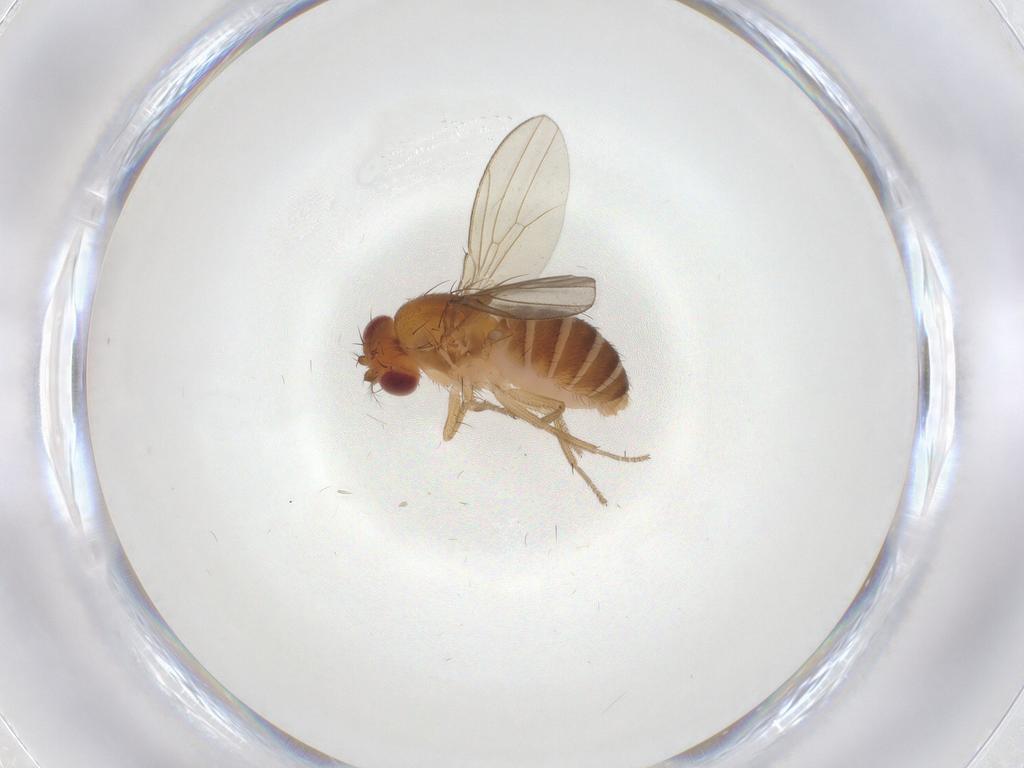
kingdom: Animalia
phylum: Arthropoda
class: Insecta
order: Diptera
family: Drosophilidae
